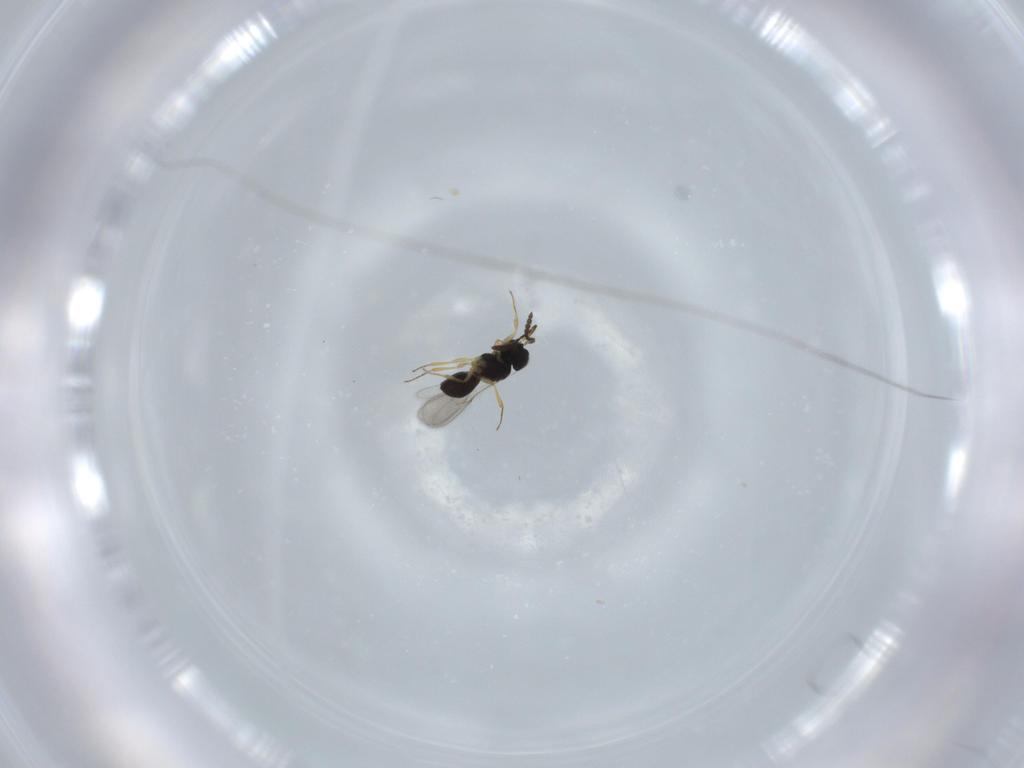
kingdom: Animalia
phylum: Arthropoda
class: Insecta
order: Hymenoptera
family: Scelionidae
